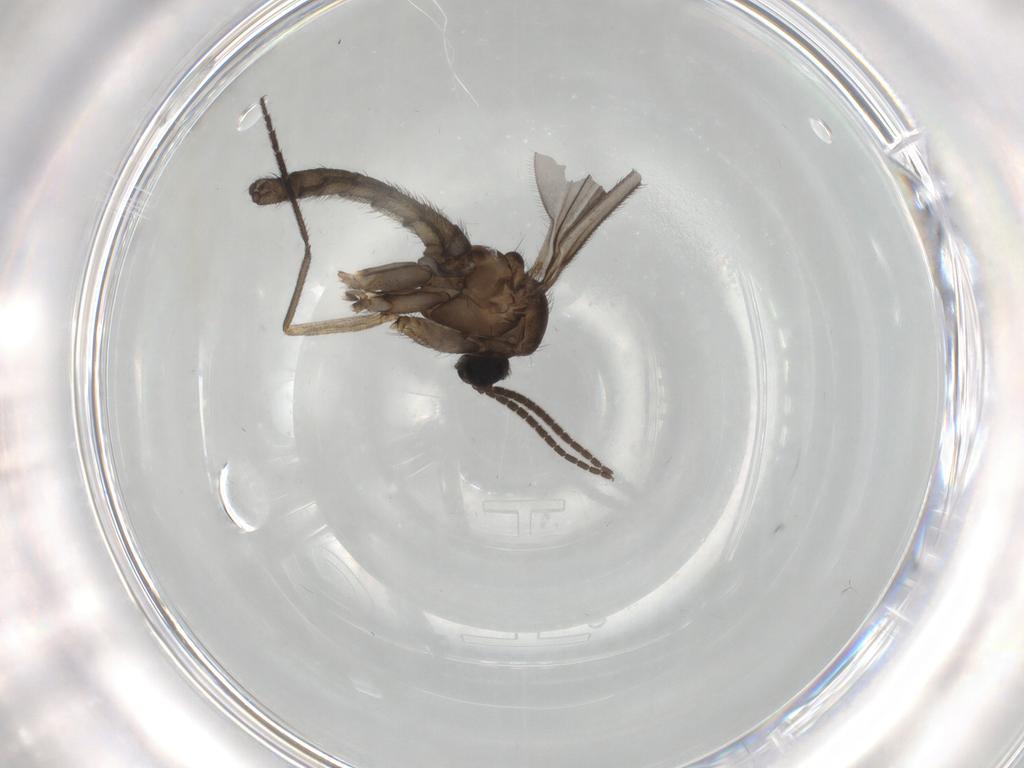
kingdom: Animalia
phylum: Arthropoda
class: Insecta
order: Diptera
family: Sciaridae
